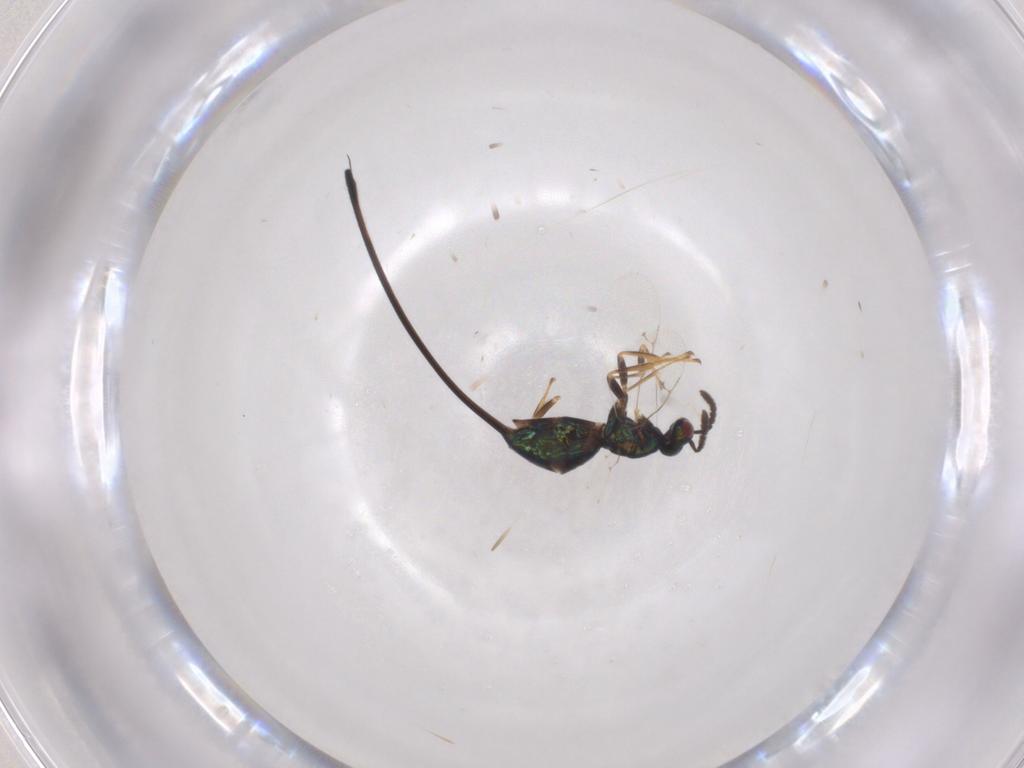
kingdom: Animalia
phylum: Arthropoda
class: Insecta
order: Hymenoptera
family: Pteromalidae
